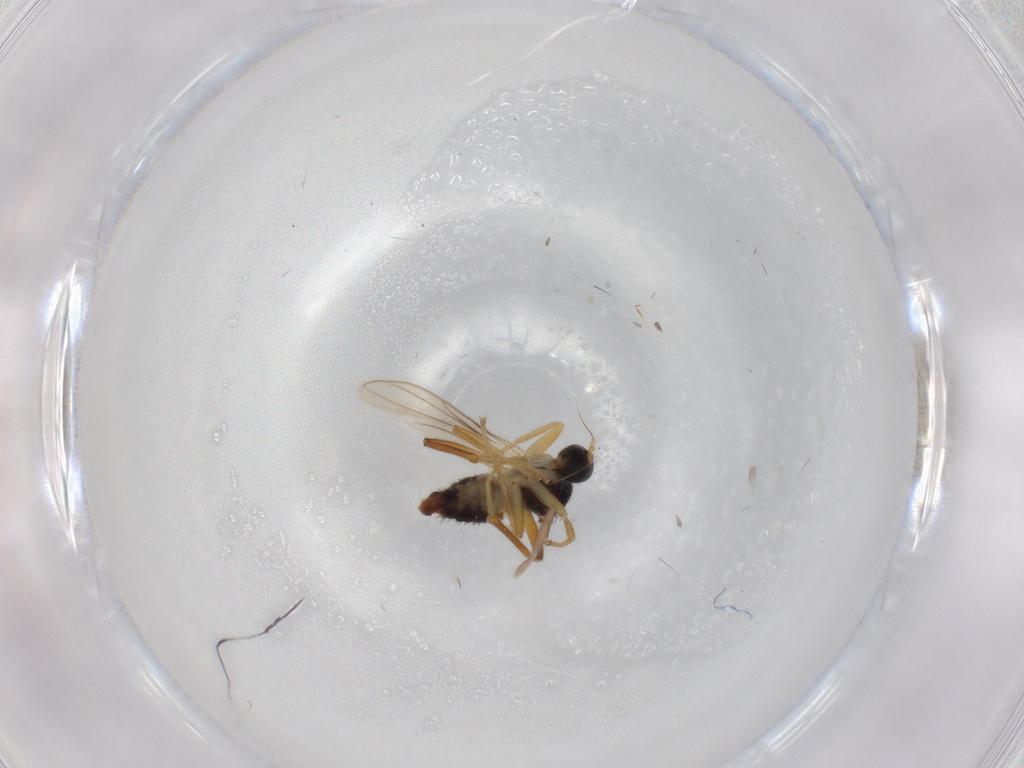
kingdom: Animalia
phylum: Arthropoda
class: Insecta
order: Diptera
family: Hybotidae
